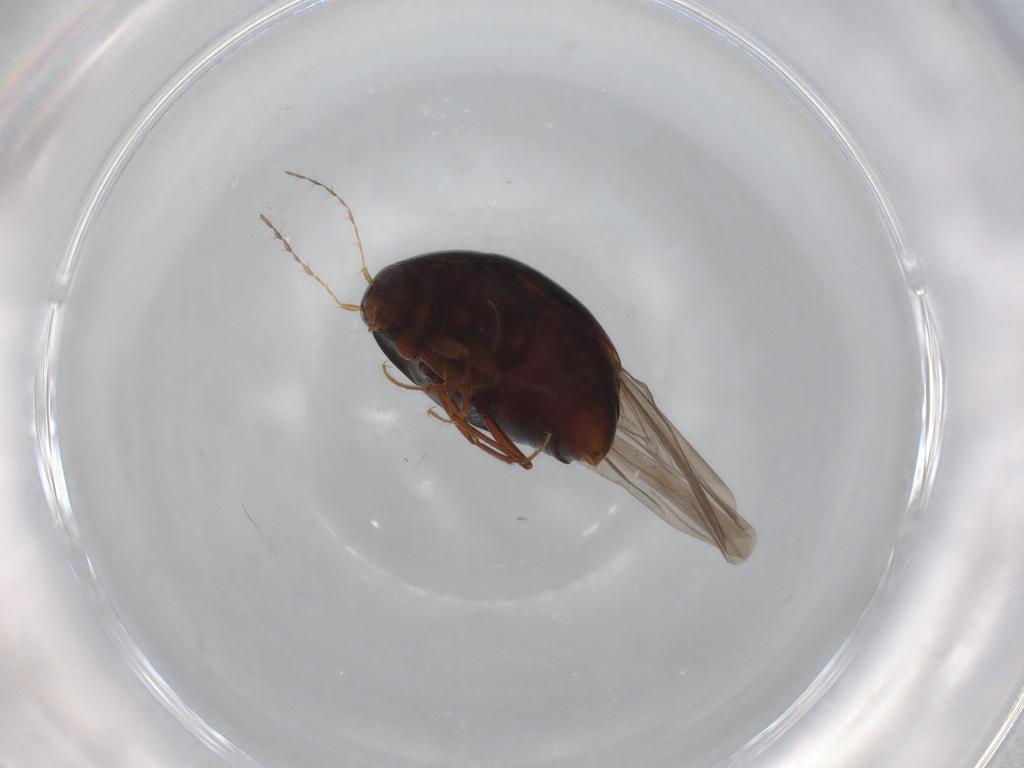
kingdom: Animalia
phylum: Arthropoda
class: Insecta
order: Coleoptera
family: Staphylinidae
